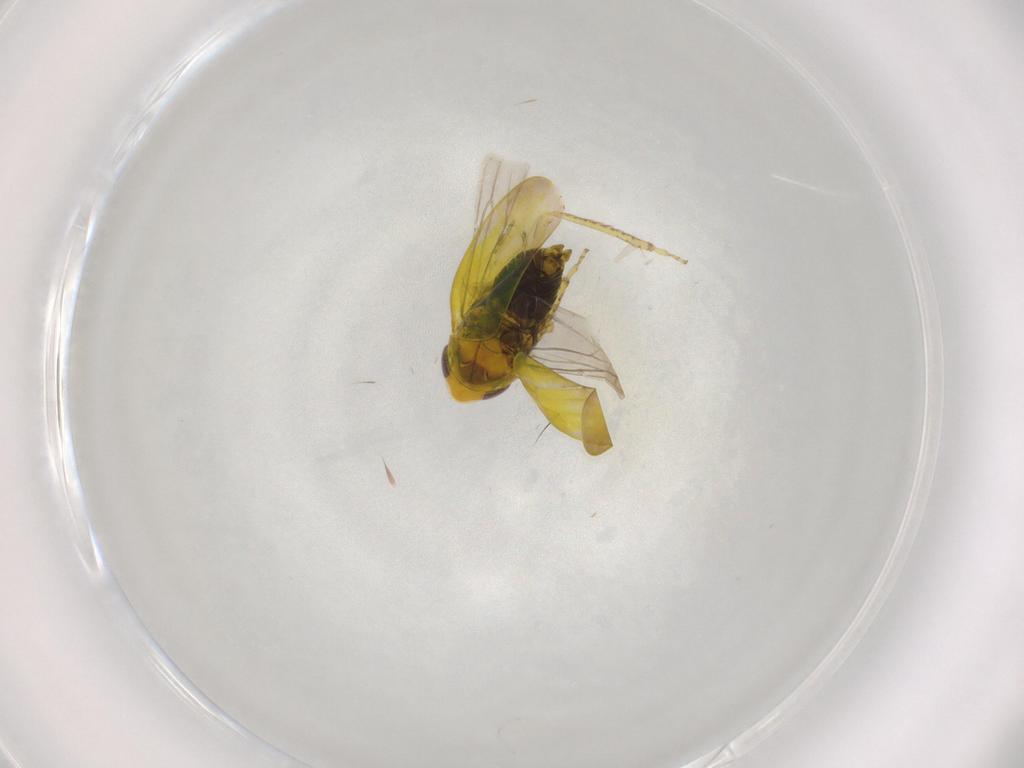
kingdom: Animalia
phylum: Arthropoda
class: Insecta
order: Hemiptera
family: Cicadellidae
